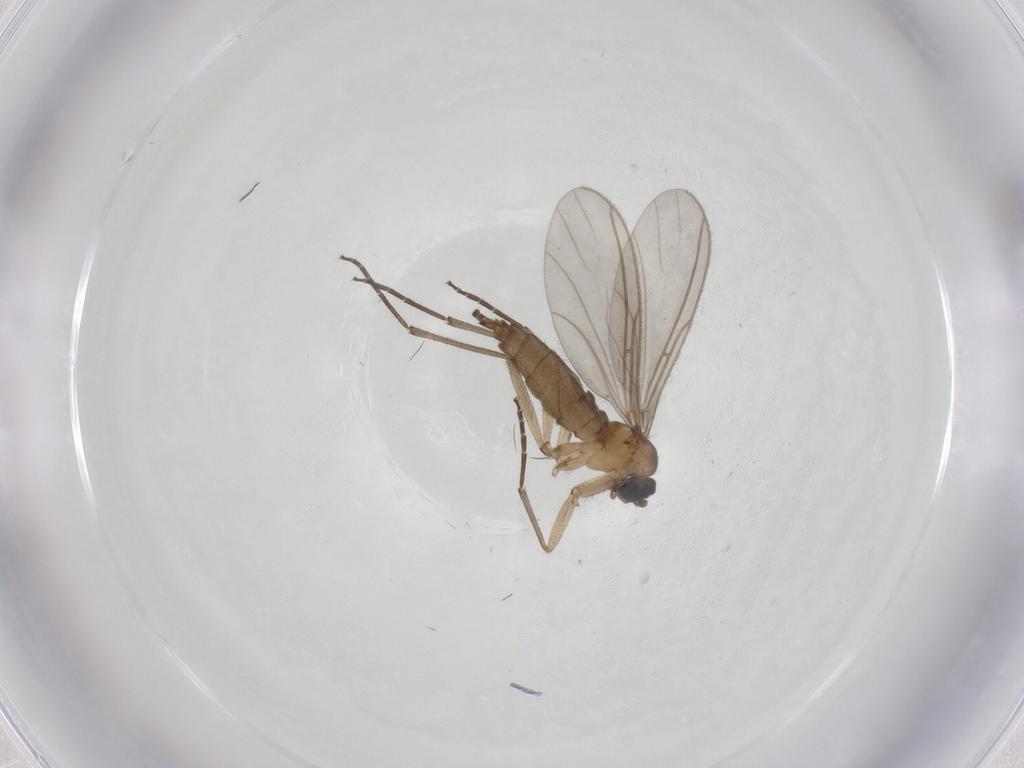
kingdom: Animalia
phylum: Arthropoda
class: Insecta
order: Diptera
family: Sciaridae
